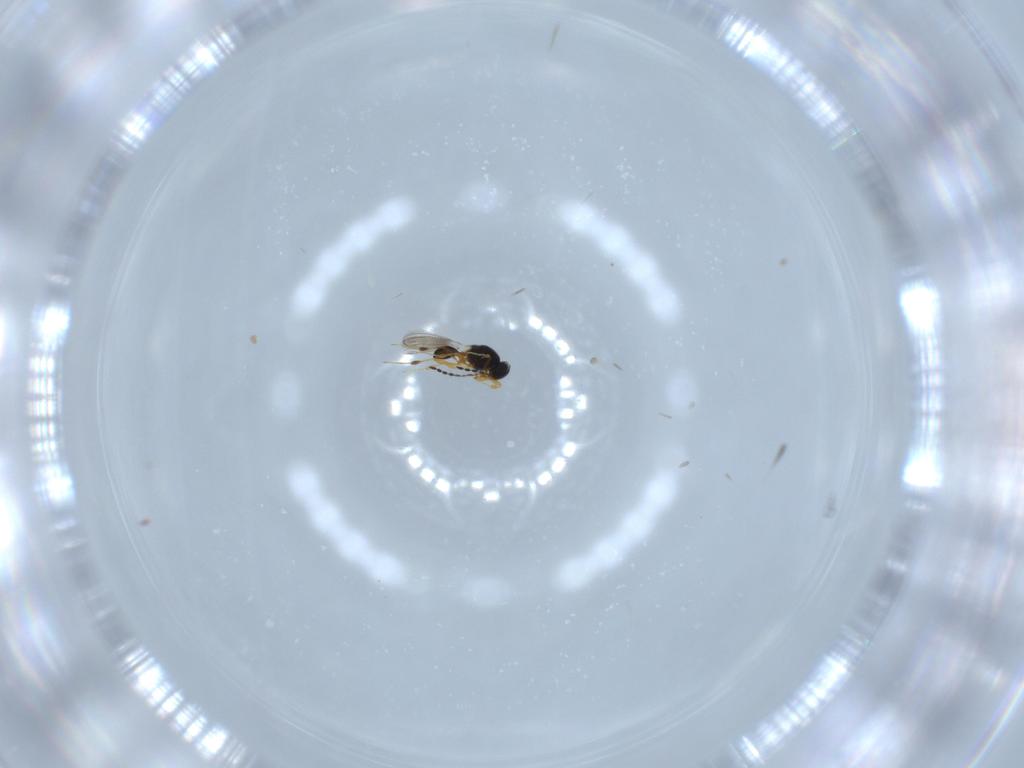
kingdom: Animalia
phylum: Arthropoda
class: Insecta
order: Hymenoptera
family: Platygastridae
